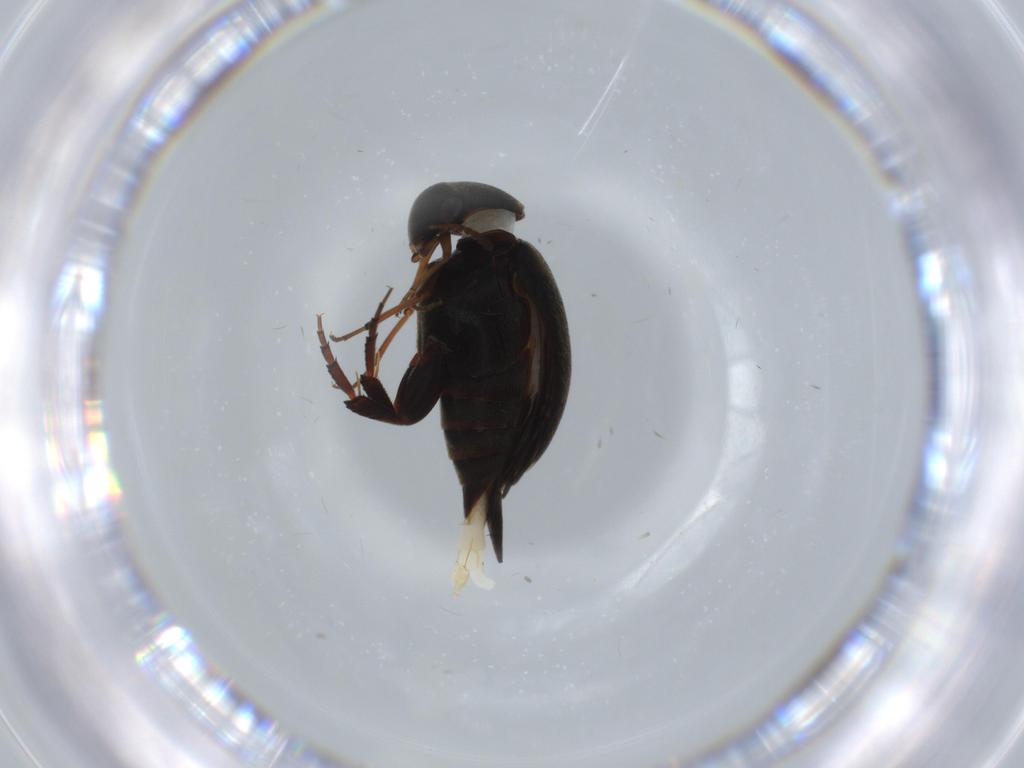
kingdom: Animalia
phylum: Arthropoda
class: Insecta
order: Coleoptera
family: Mordellidae
